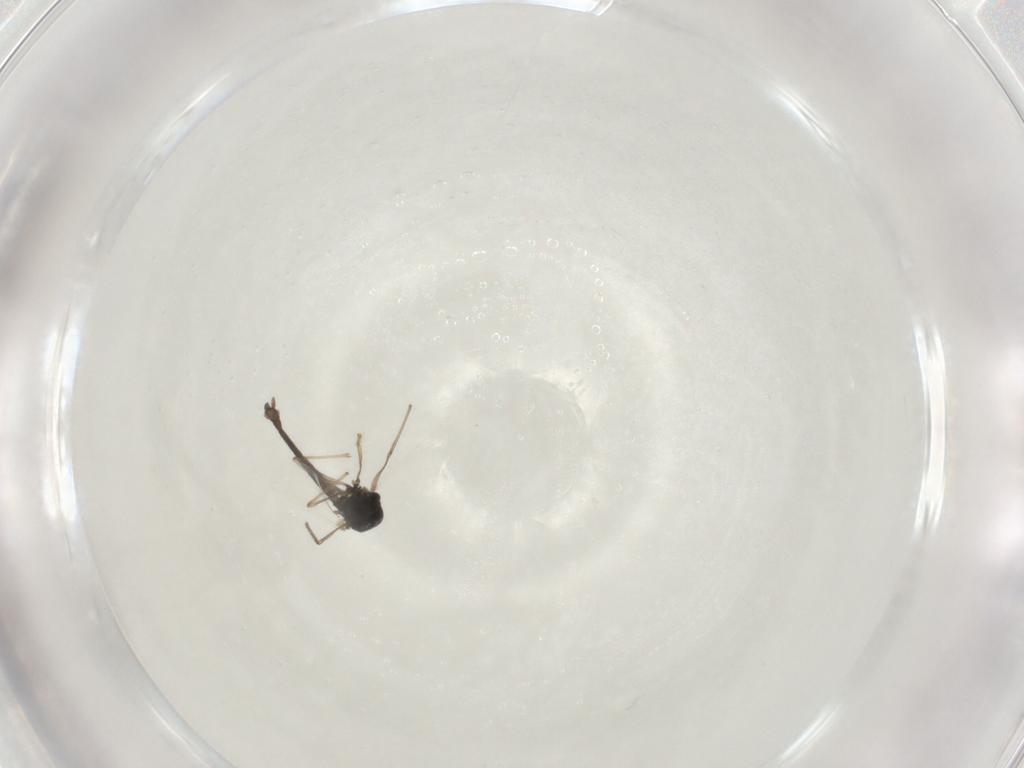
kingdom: Animalia
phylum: Arthropoda
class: Insecta
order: Diptera
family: Chironomidae
